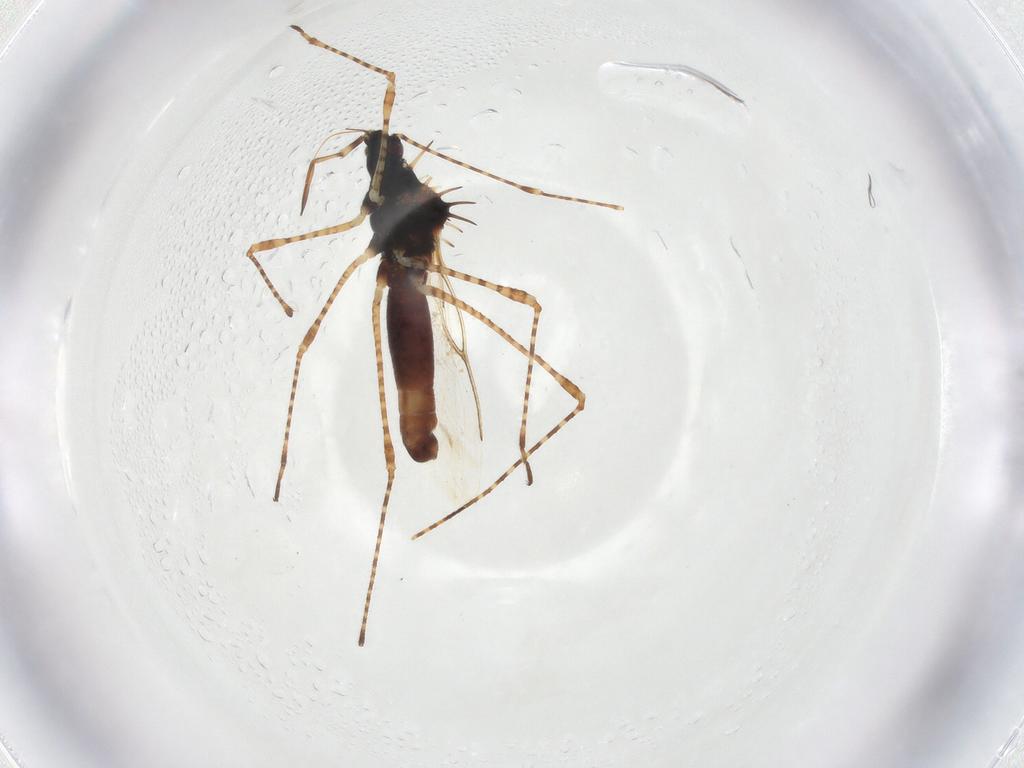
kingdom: Animalia
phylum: Arthropoda
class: Insecta
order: Hemiptera
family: Berytidae
